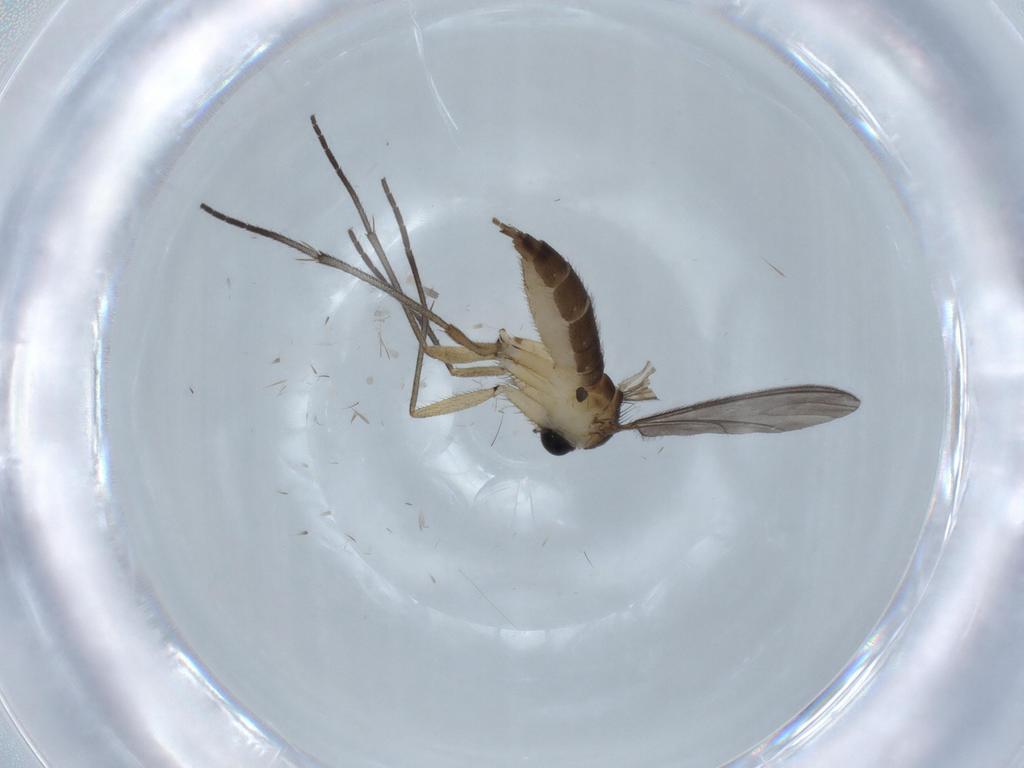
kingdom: Animalia
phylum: Arthropoda
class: Insecta
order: Diptera
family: Sciaridae
